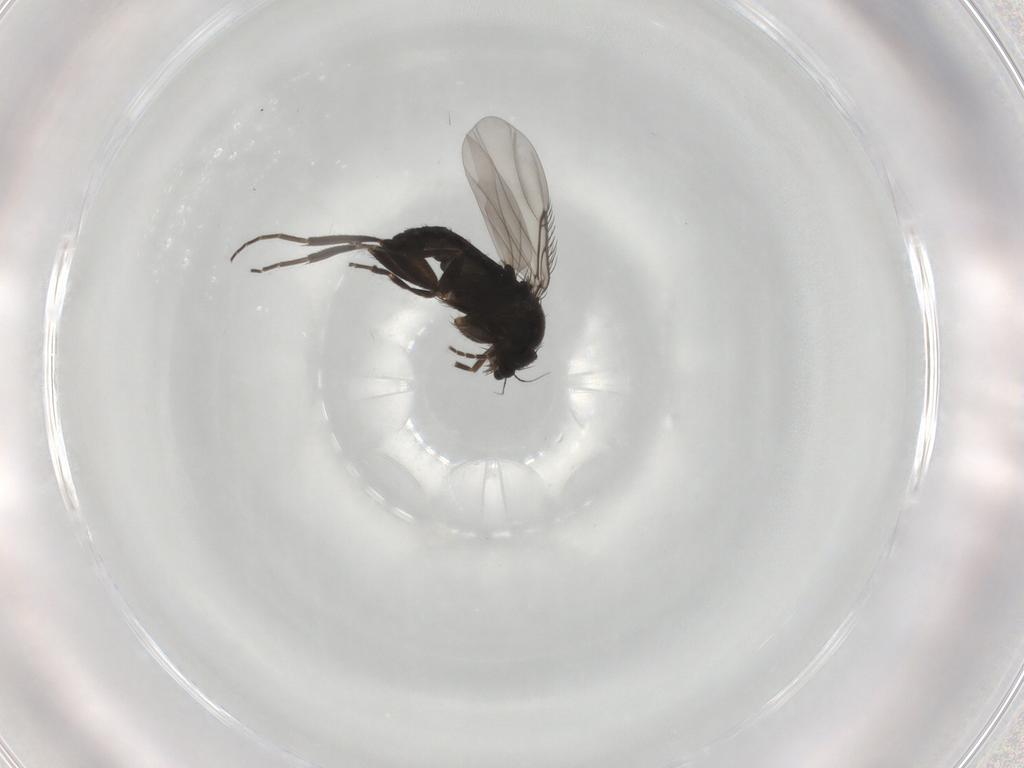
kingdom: Animalia
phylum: Arthropoda
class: Insecta
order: Diptera
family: Phoridae
